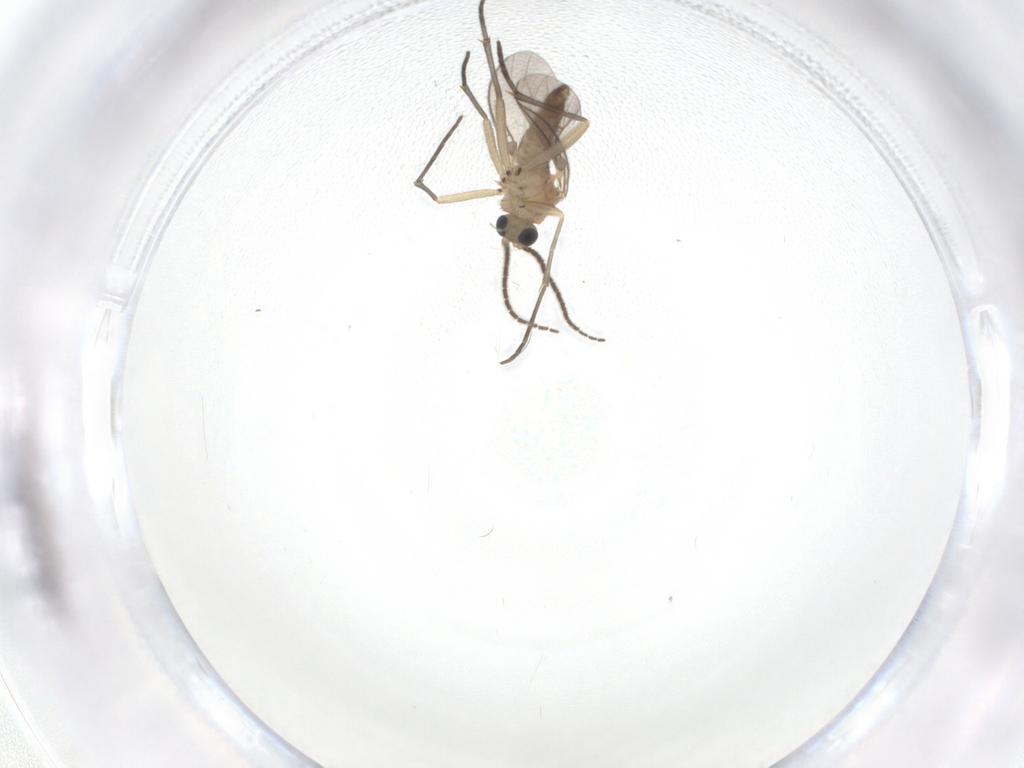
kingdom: Animalia
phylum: Arthropoda
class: Insecta
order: Diptera
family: Sciaridae
